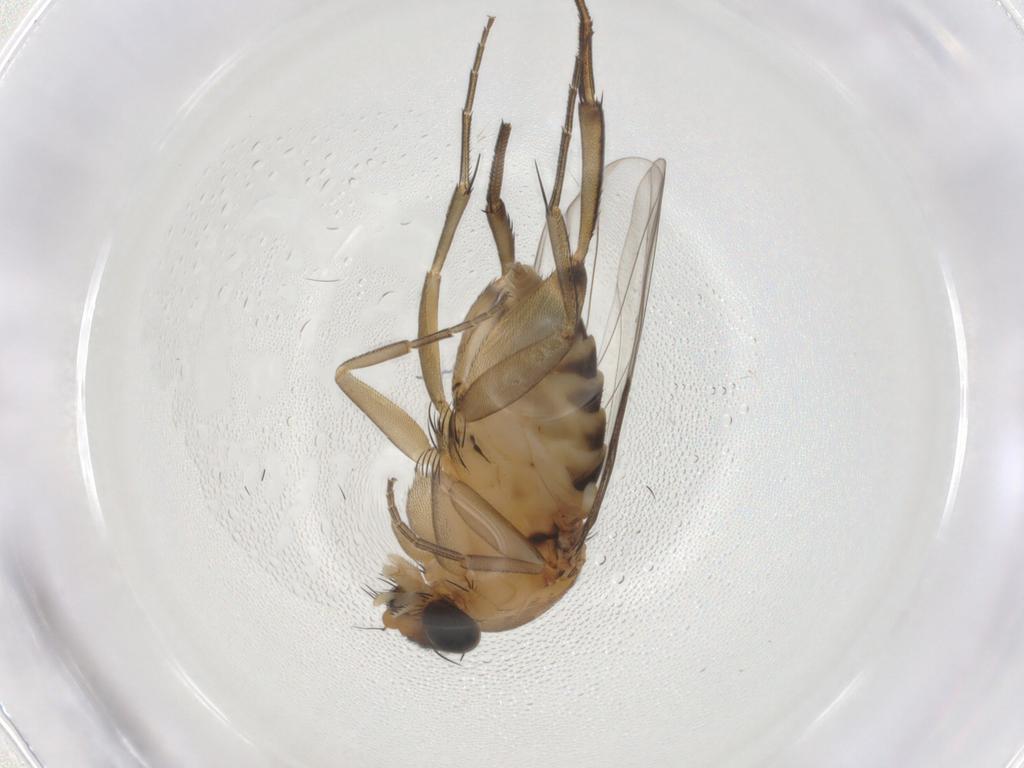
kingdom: Animalia
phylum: Arthropoda
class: Insecta
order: Diptera
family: Phoridae
